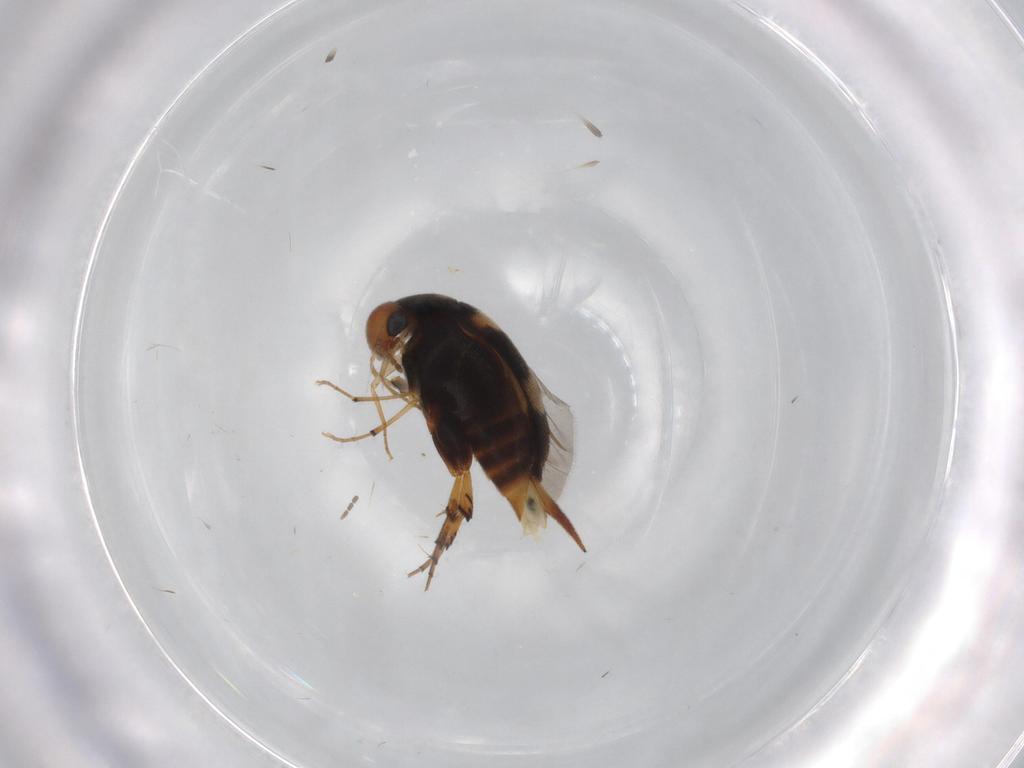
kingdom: Animalia
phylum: Arthropoda
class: Insecta
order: Coleoptera
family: Mordellidae
